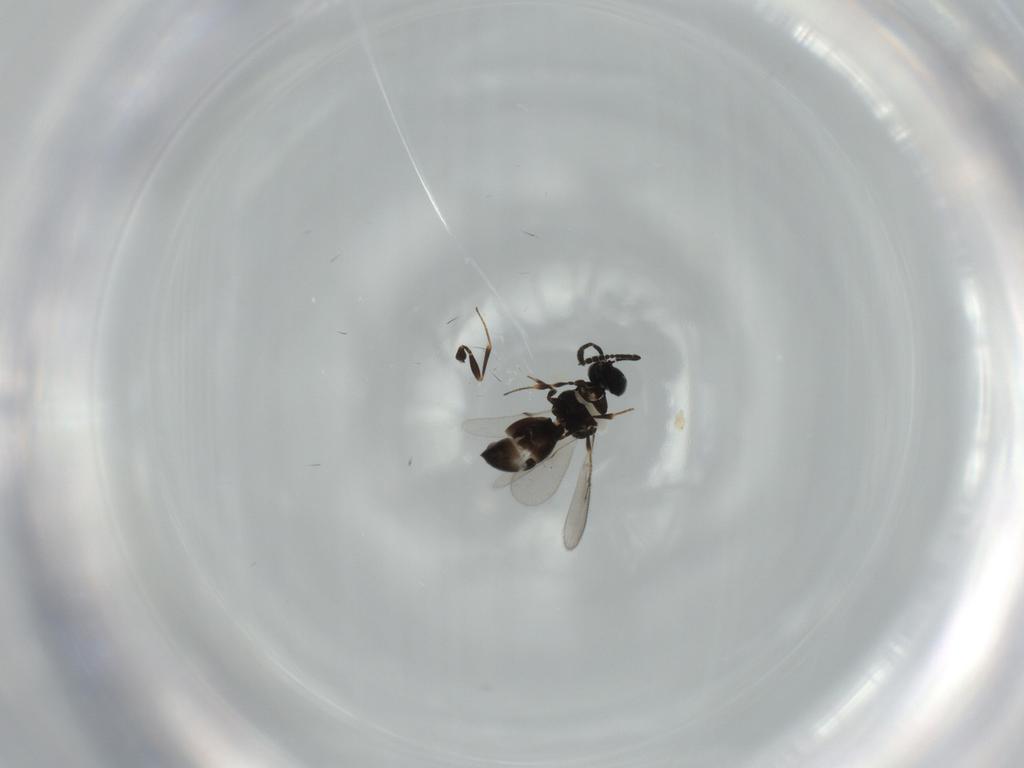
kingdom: Animalia
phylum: Arthropoda
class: Insecta
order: Hymenoptera
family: Scelionidae
